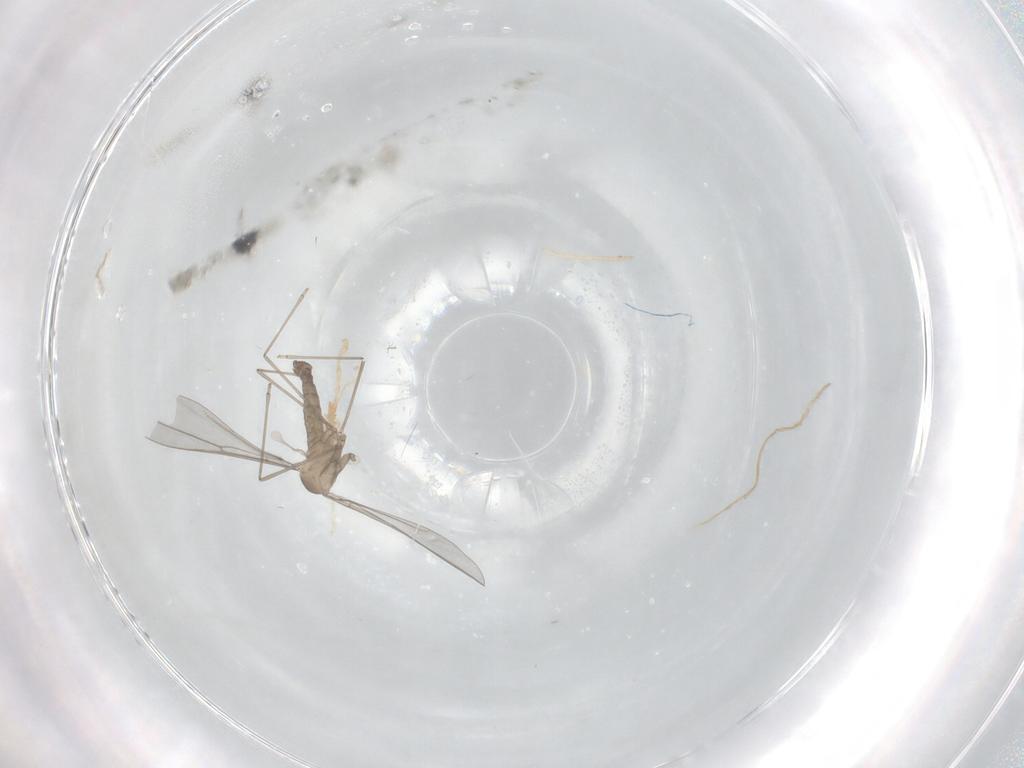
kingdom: Animalia
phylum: Arthropoda
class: Insecta
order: Diptera
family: Cecidomyiidae
